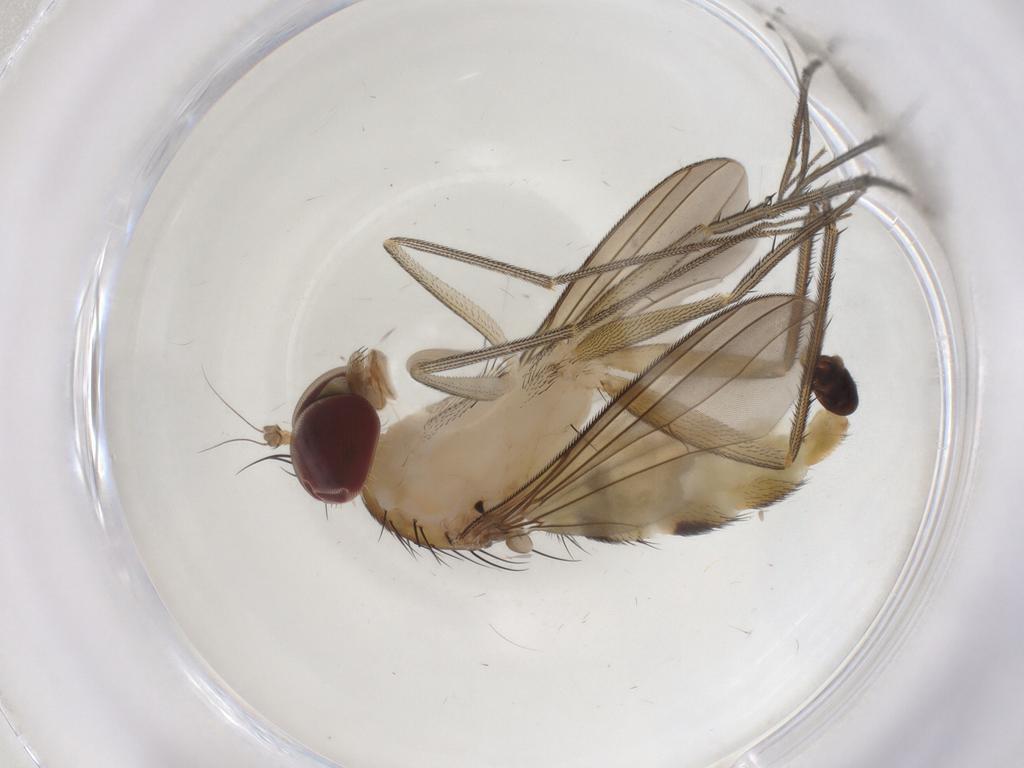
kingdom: Animalia
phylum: Arthropoda
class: Insecta
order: Diptera
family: Dolichopodidae
